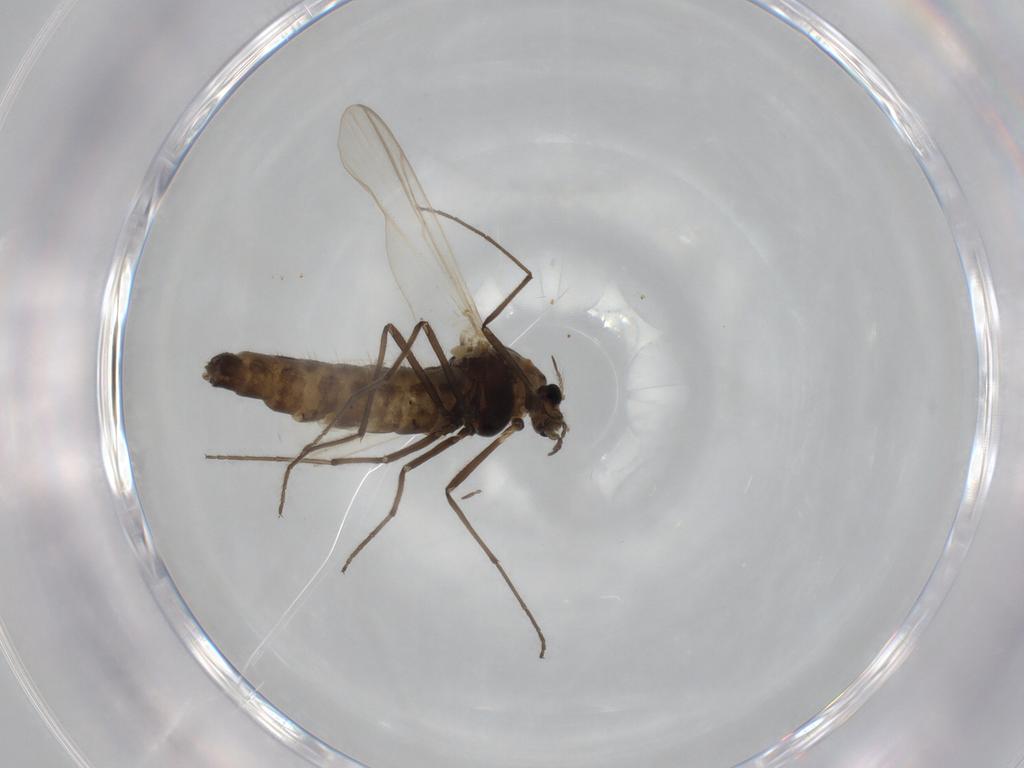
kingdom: Animalia
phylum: Arthropoda
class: Insecta
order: Diptera
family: Chironomidae
